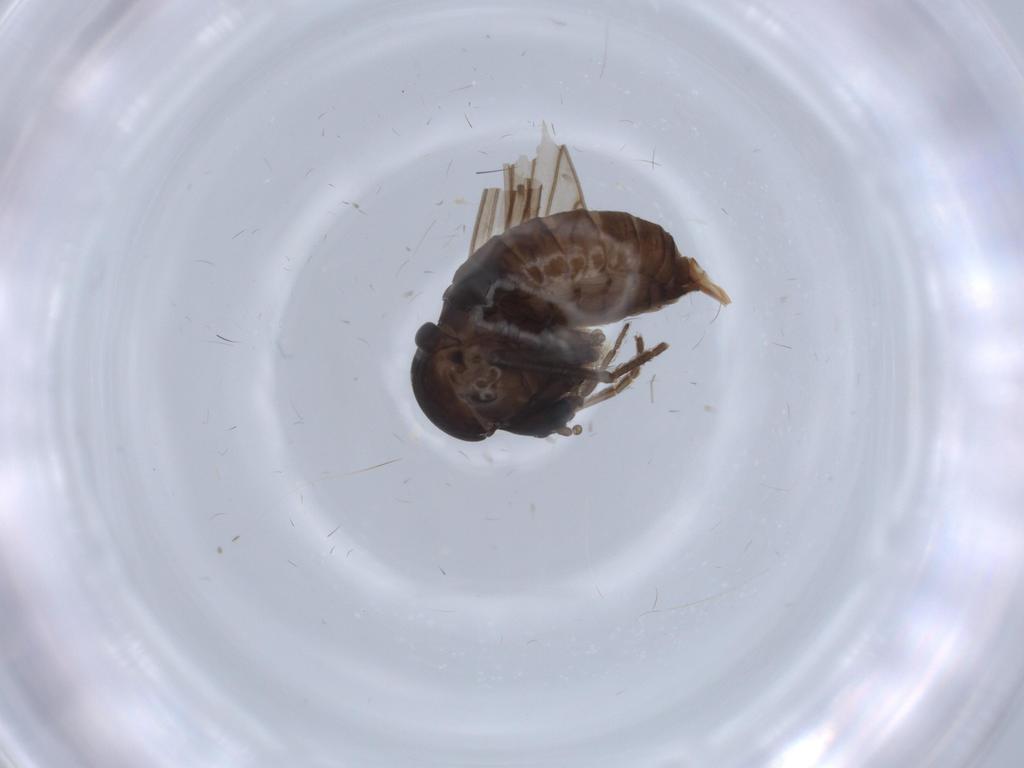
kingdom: Animalia
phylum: Arthropoda
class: Insecta
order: Diptera
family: Psychodidae
